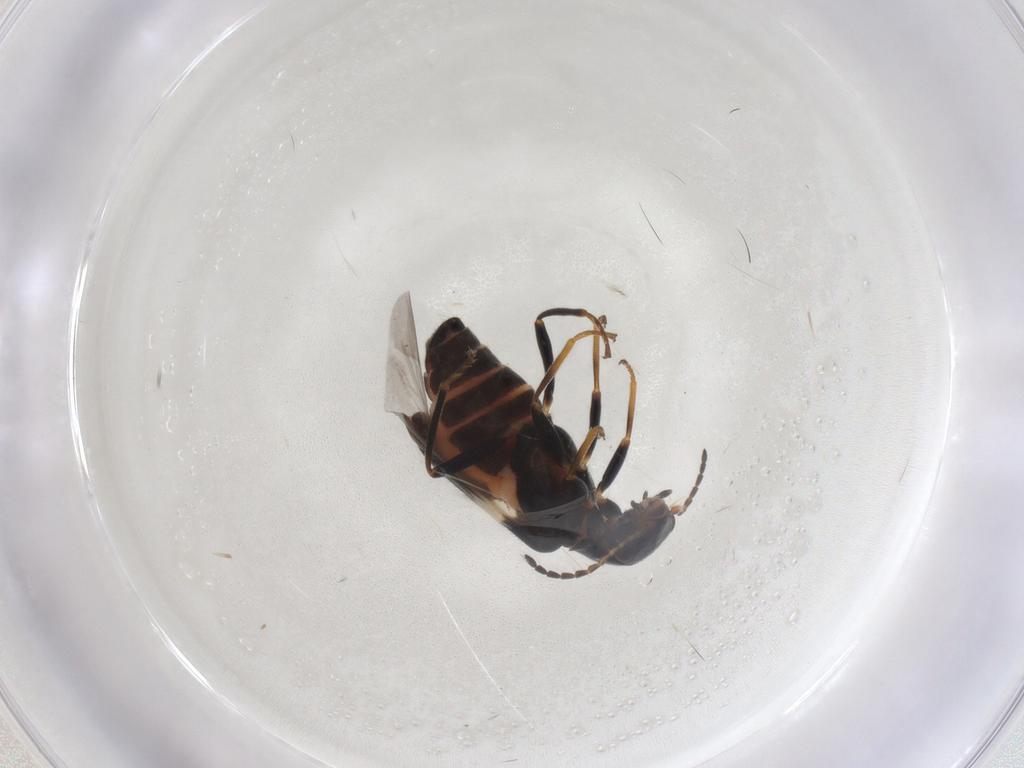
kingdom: Animalia
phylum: Arthropoda
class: Insecta
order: Coleoptera
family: Melyridae
